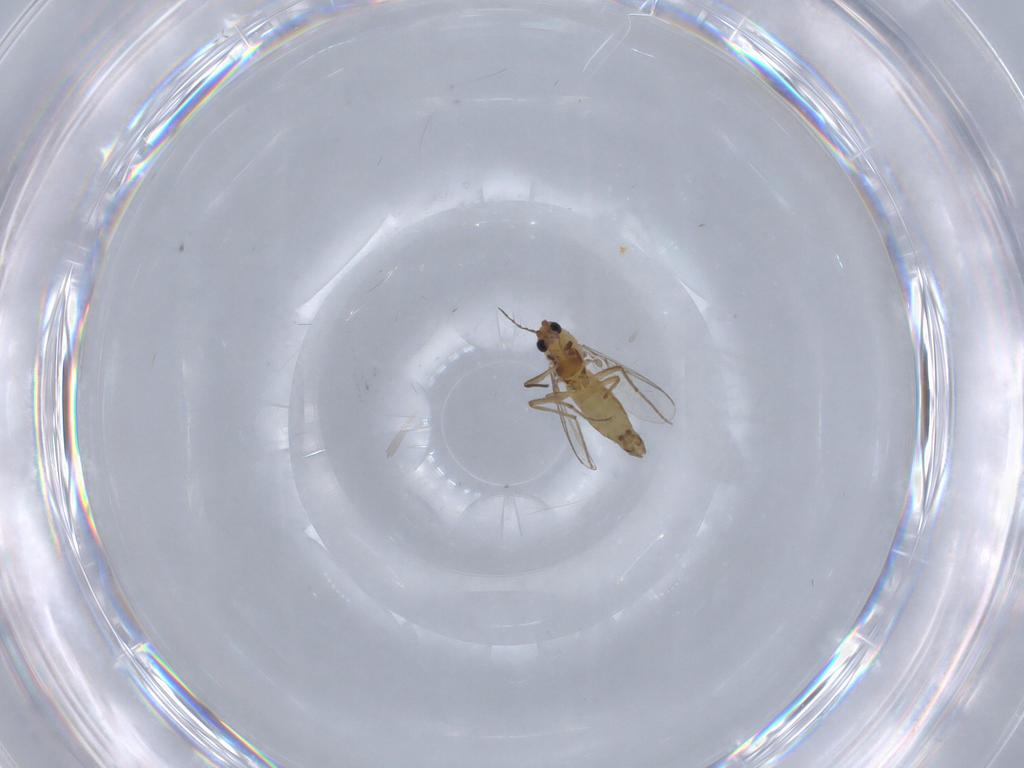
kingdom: Animalia
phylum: Arthropoda
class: Insecta
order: Diptera
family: Chironomidae
